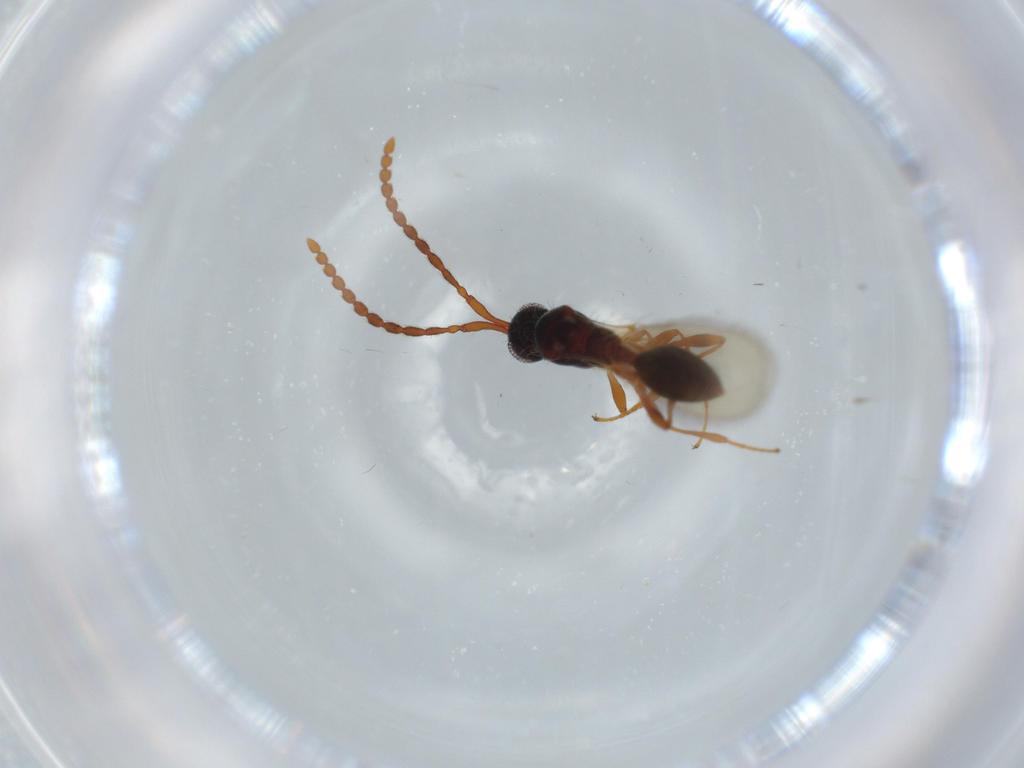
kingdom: Animalia
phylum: Arthropoda
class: Insecta
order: Hymenoptera
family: Diapriidae
